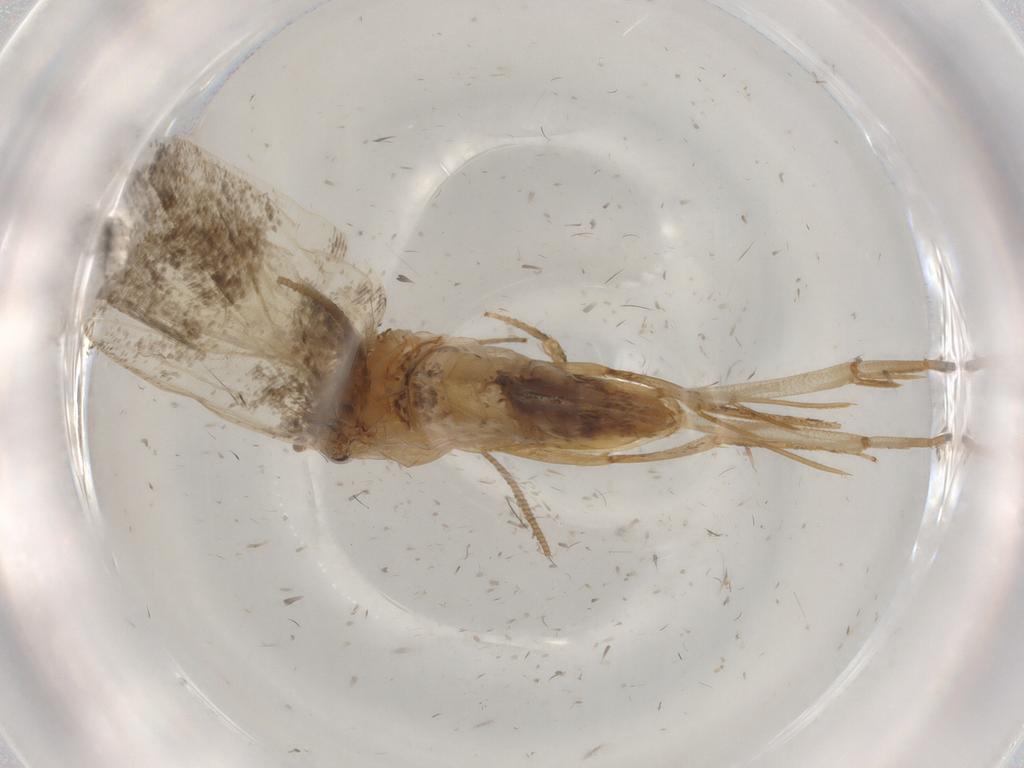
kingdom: Animalia
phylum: Arthropoda
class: Insecta
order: Lepidoptera
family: Tineidae
